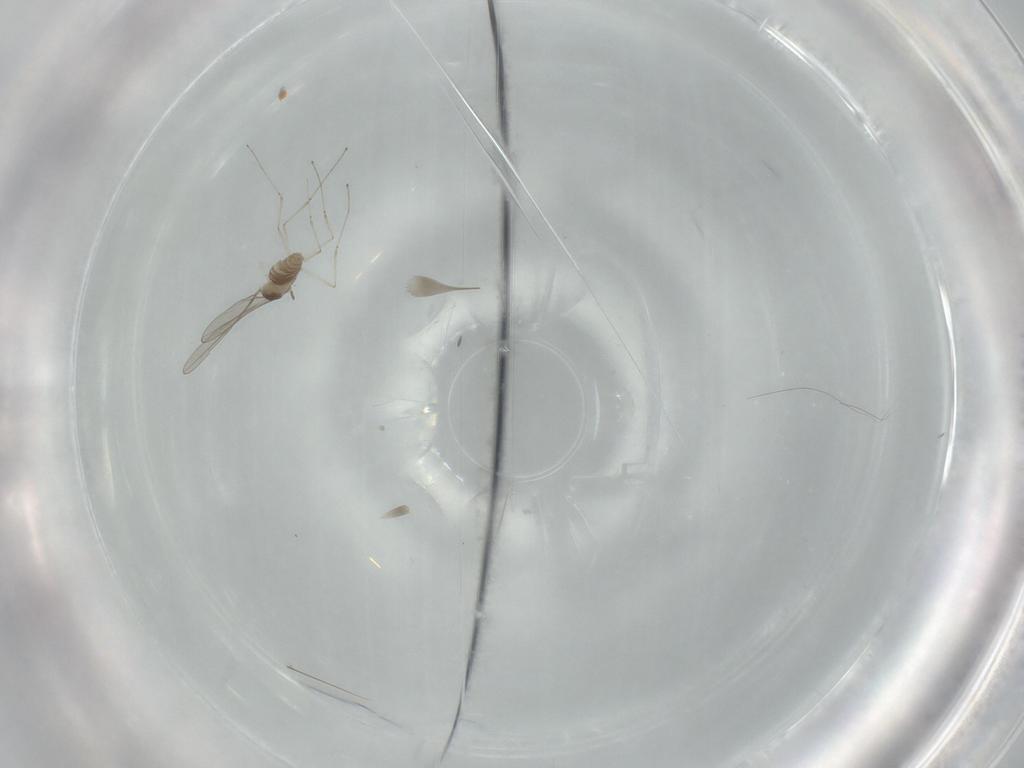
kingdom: Animalia
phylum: Arthropoda
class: Insecta
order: Diptera
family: Cecidomyiidae
